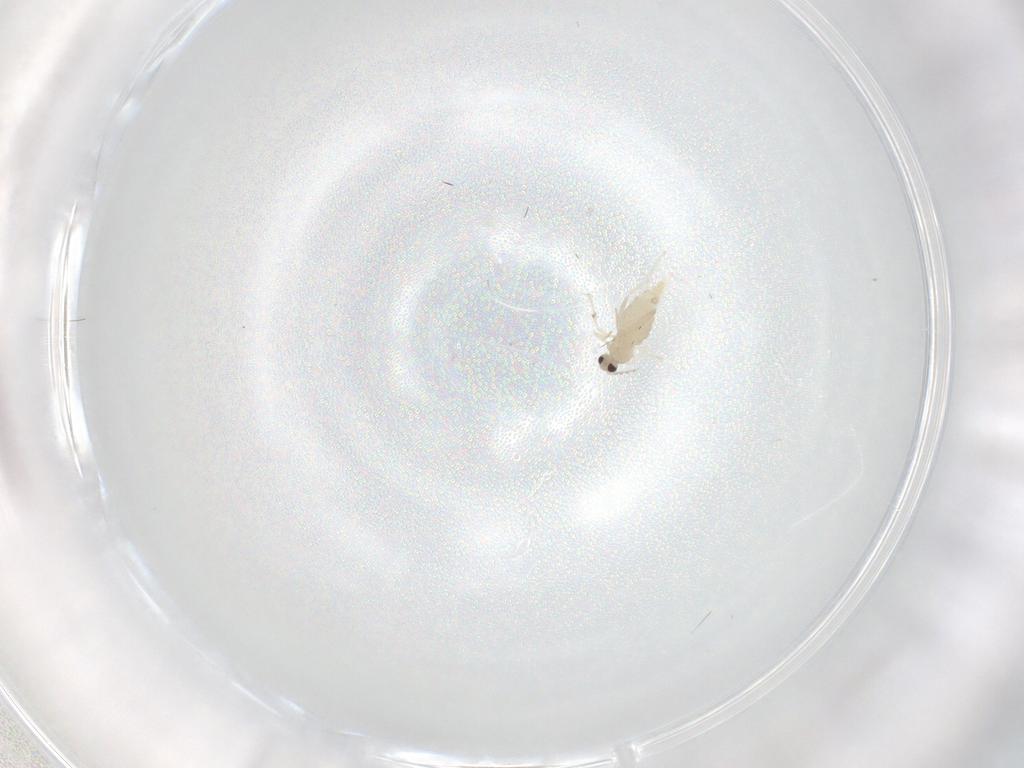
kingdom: Animalia
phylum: Arthropoda
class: Insecta
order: Diptera
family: Cecidomyiidae
